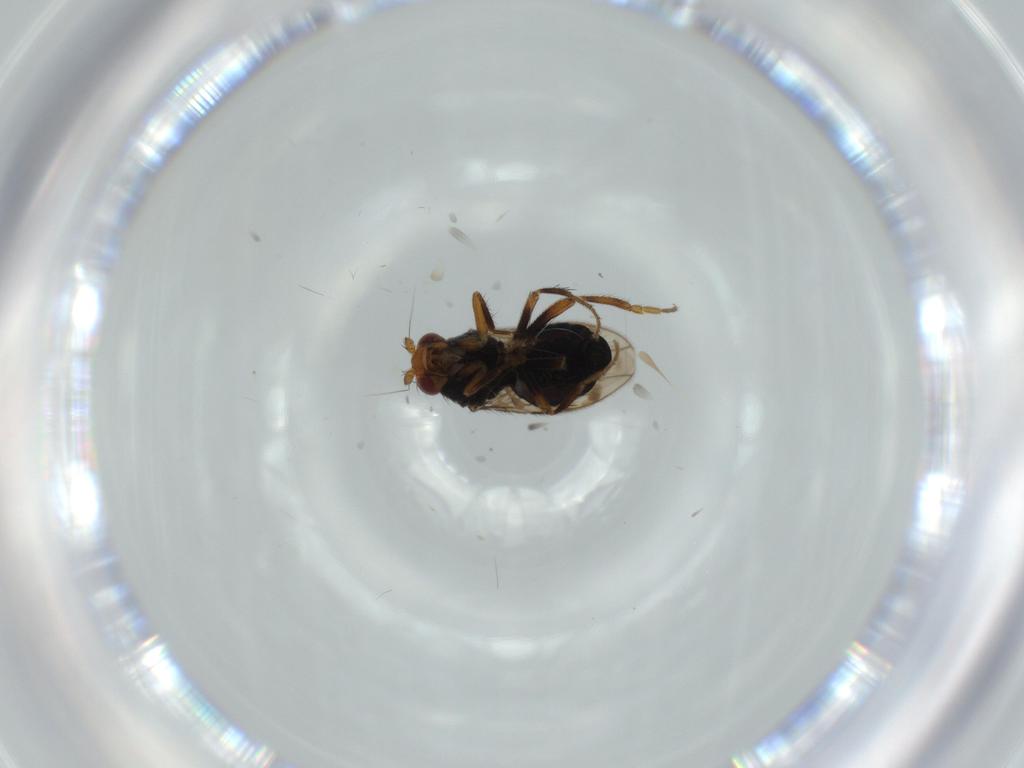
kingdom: Animalia
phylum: Arthropoda
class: Insecta
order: Diptera
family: Sphaeroceridae
